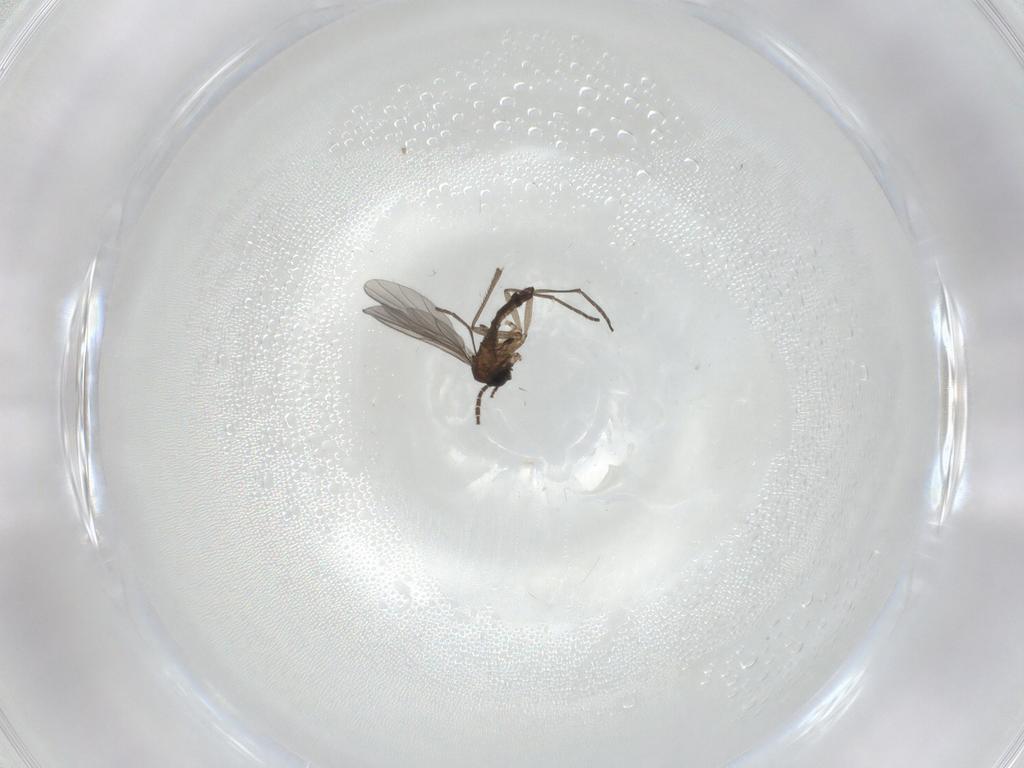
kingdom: Animalia
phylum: Arthropoda
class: Insecta
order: Diptera
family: Sciaridae
